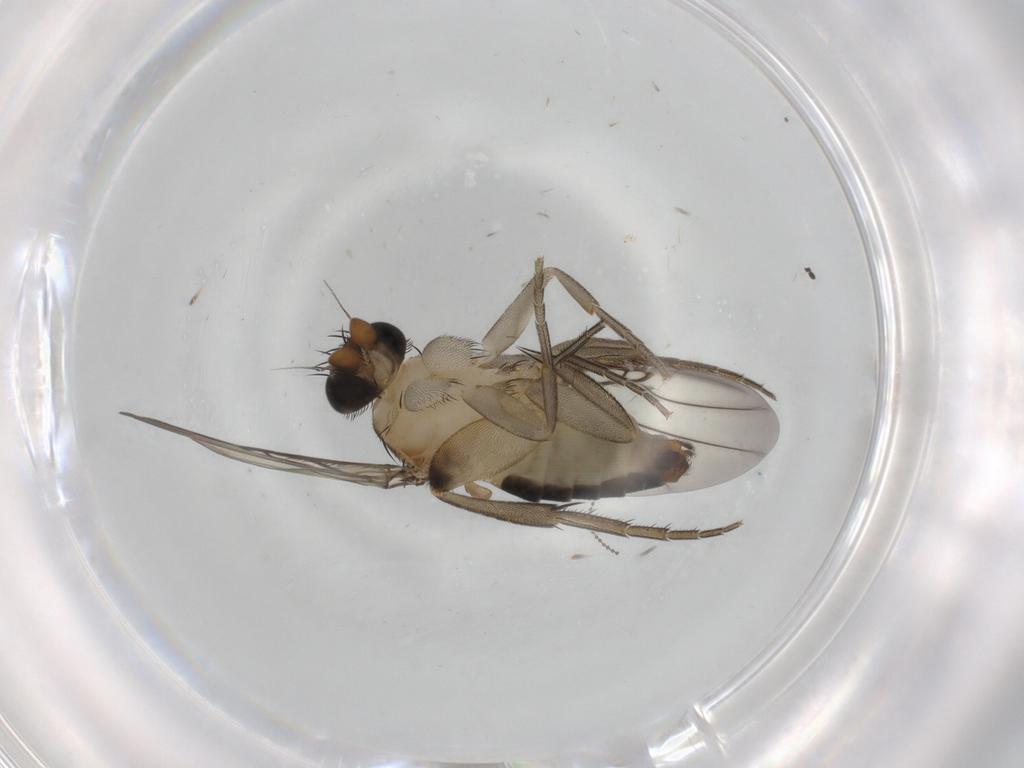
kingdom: Animalia
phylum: Arthropoda
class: Insecta
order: Diptera
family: Phoridae
